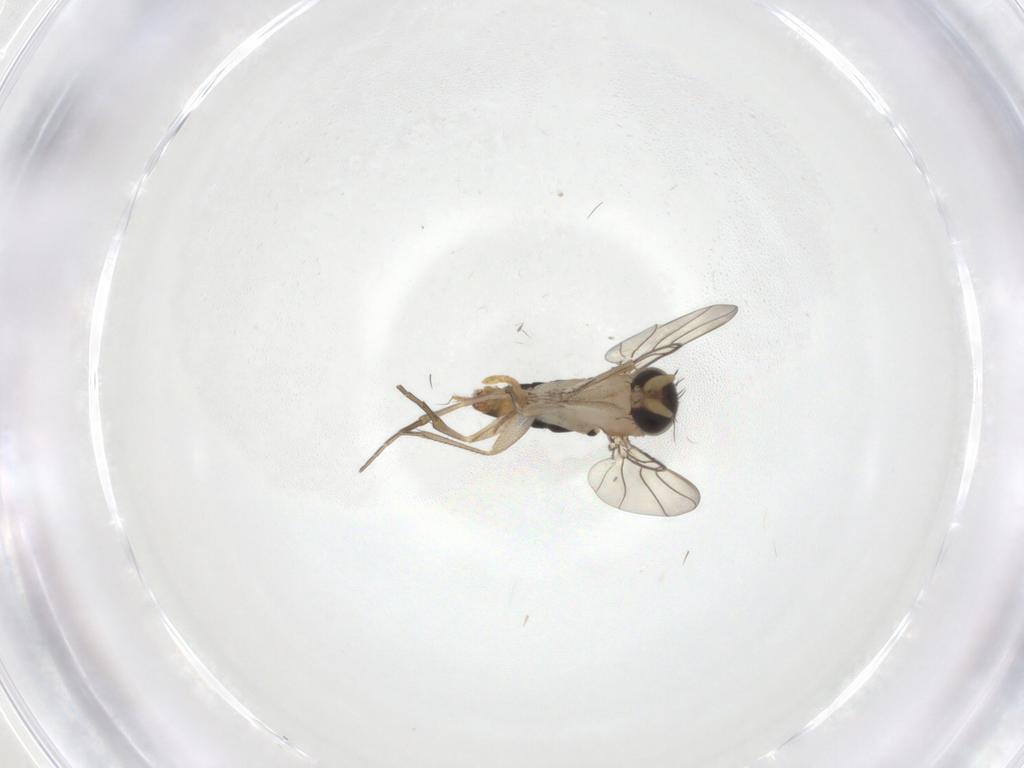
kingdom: Animalia
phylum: Arthropoda
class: Insecta
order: Diptera
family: Phoridae
